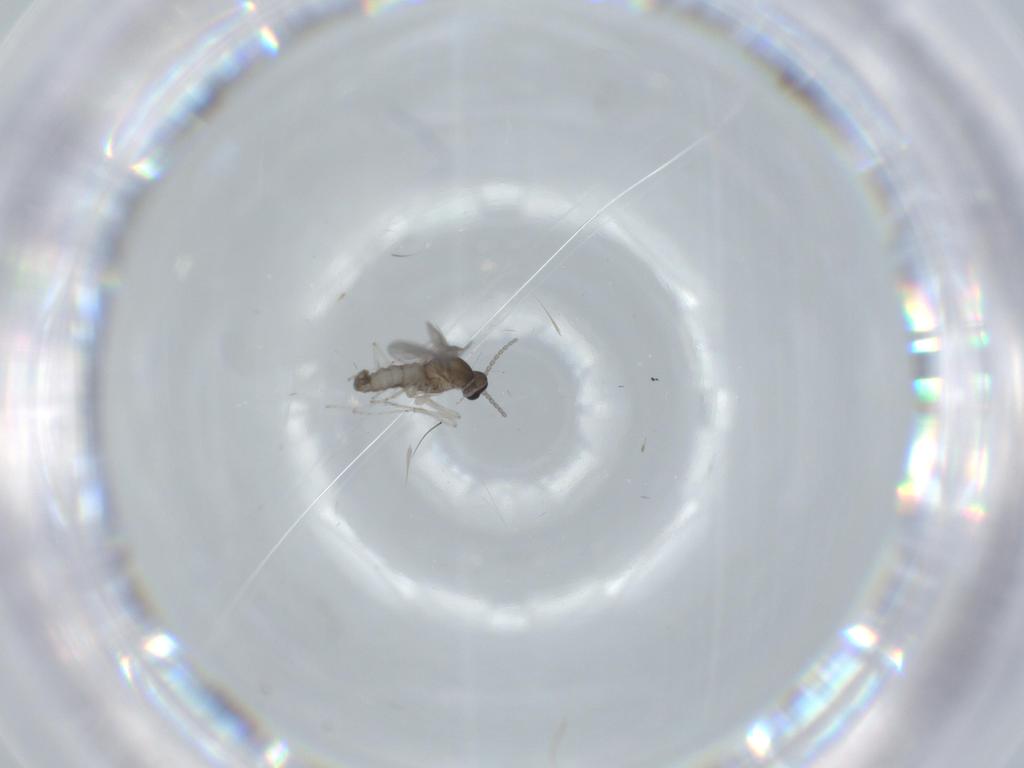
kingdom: Animalia
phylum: Arthropoda
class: Insecta
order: Diptera
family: Cecidomyiidae
